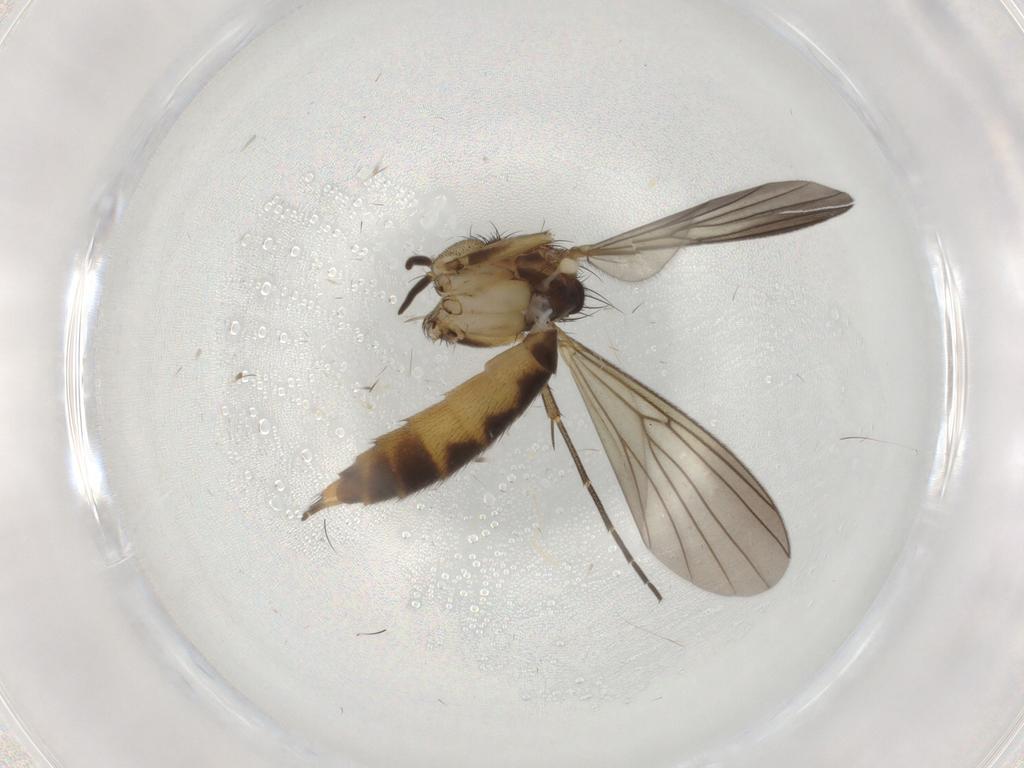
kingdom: Animalia
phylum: Arthropoda
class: Insecta
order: Diptera
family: Mycetophilidae
